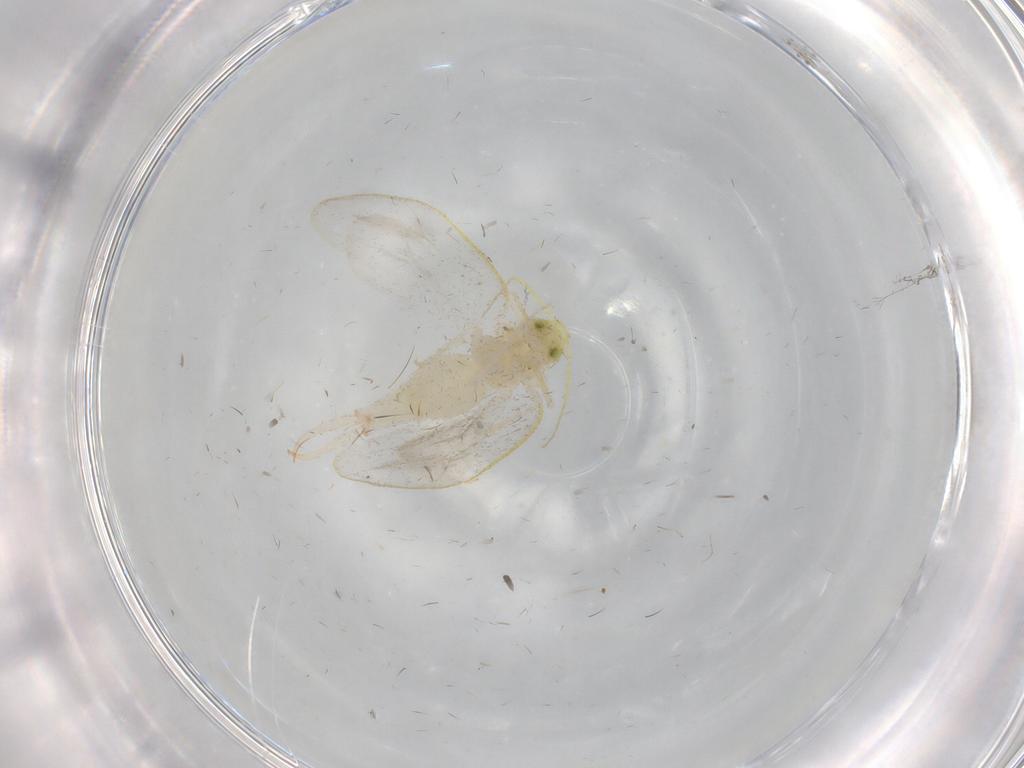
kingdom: Animalia
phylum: Arthropoda
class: Insecta
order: Hemiptera
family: Aleyrodidae
